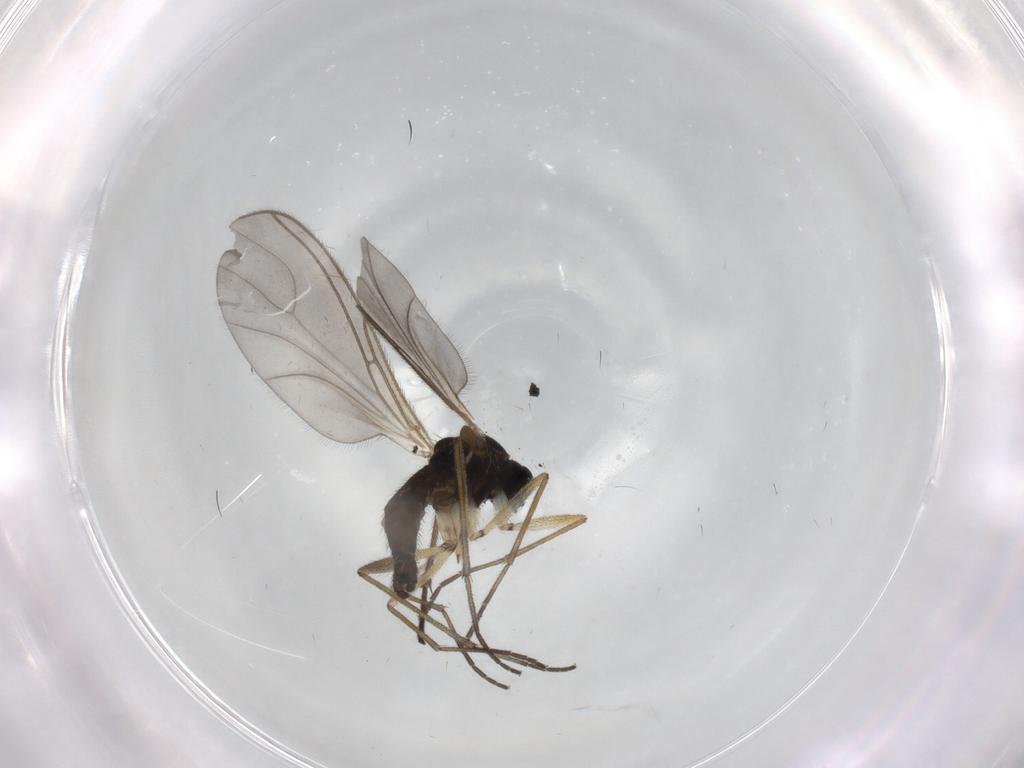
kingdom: Animalia
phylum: Arthropoda
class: Insecta
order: Diptera
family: Sciaridae
